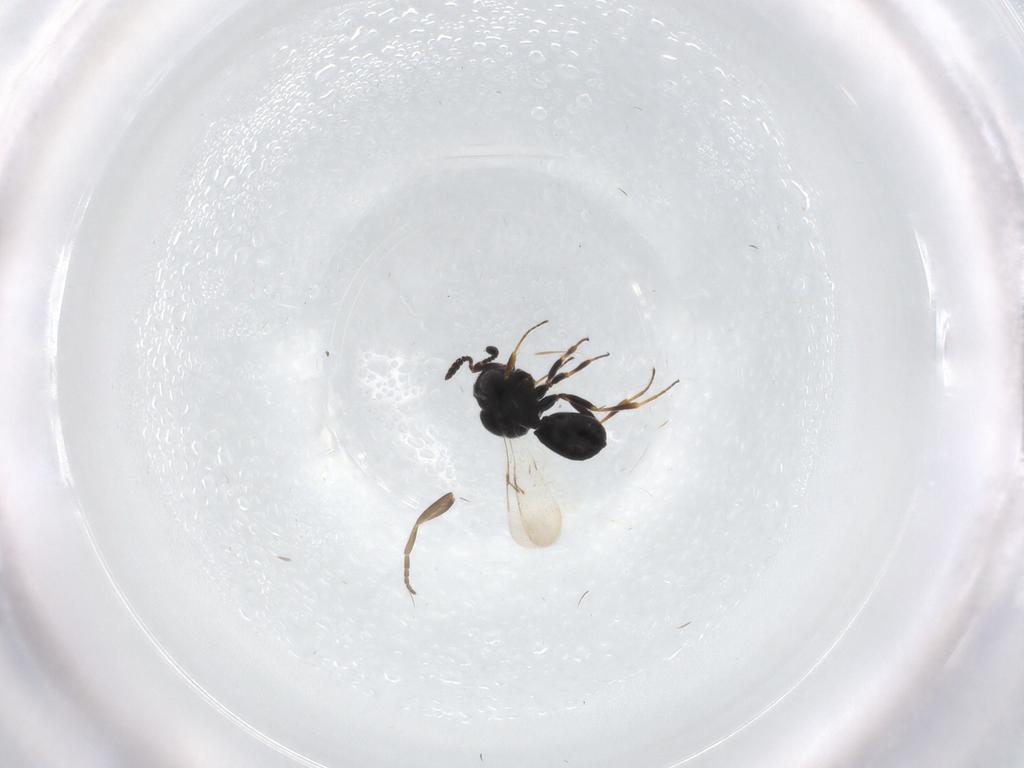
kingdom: Animalia
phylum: Arthropoda
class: Insecta
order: Hymenoptera
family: Scelionidae
